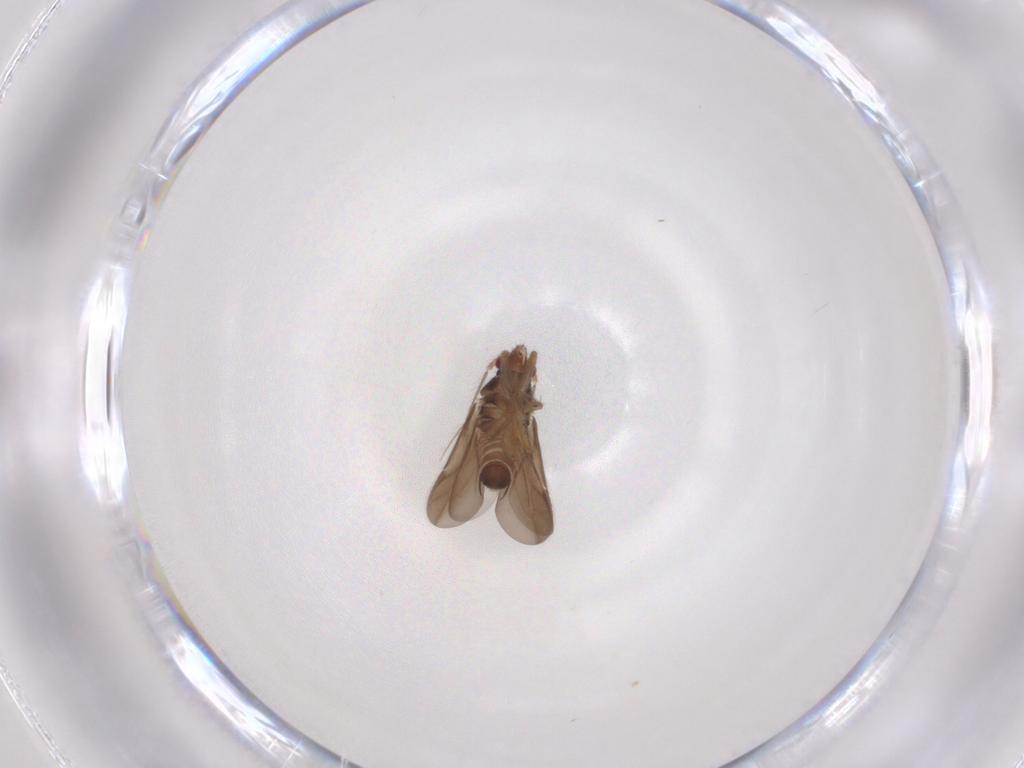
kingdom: Animalia
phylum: Arthropoda
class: Insecta
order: Hemiptera
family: Ceratocombidae
